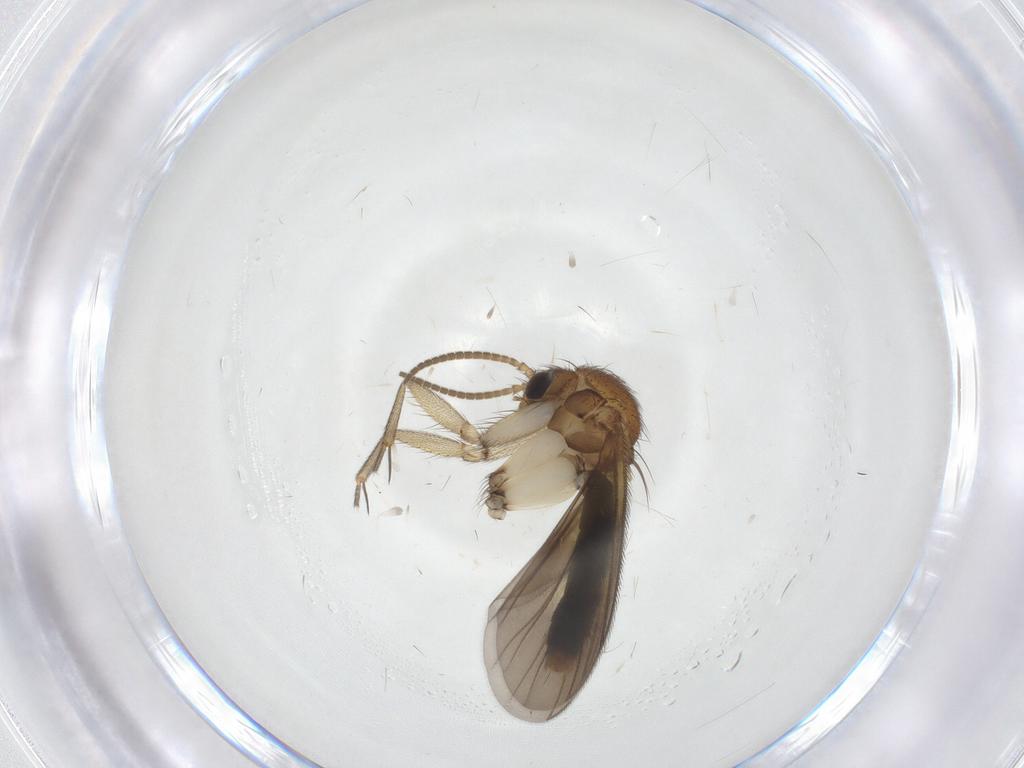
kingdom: Animalia
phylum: Arthropoda
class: Insecta
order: Diptera
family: Mycetophilidae
